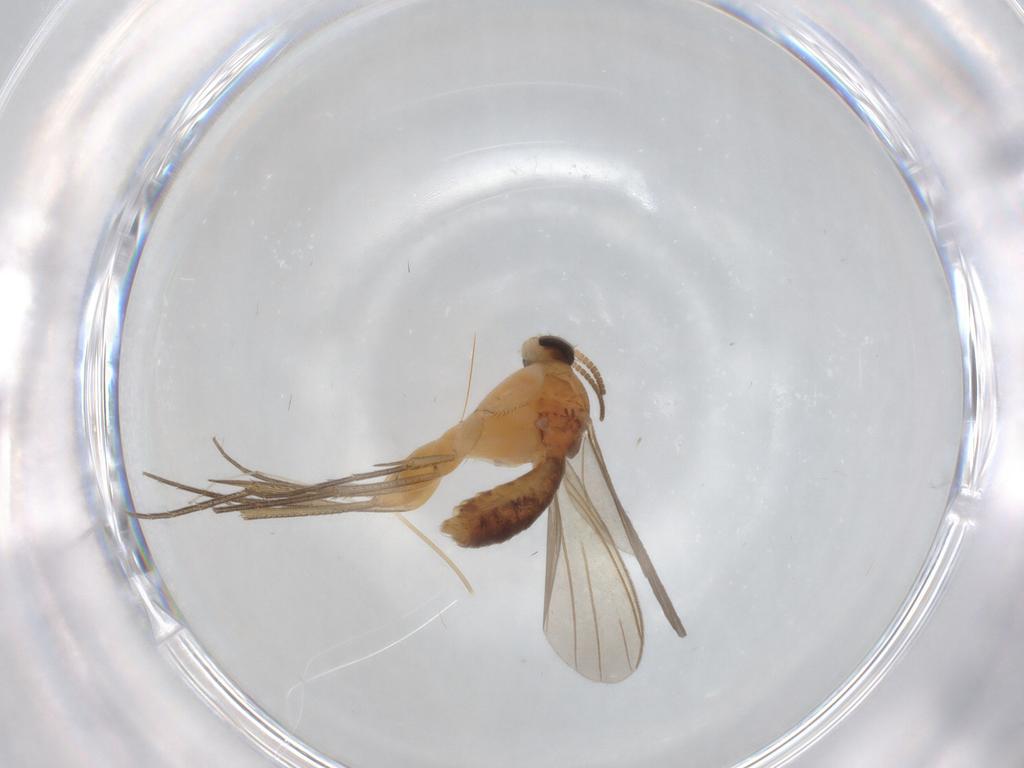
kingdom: Animalia
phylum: Arthropoda
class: Insecta
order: Diptera
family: Mycetophilidae
